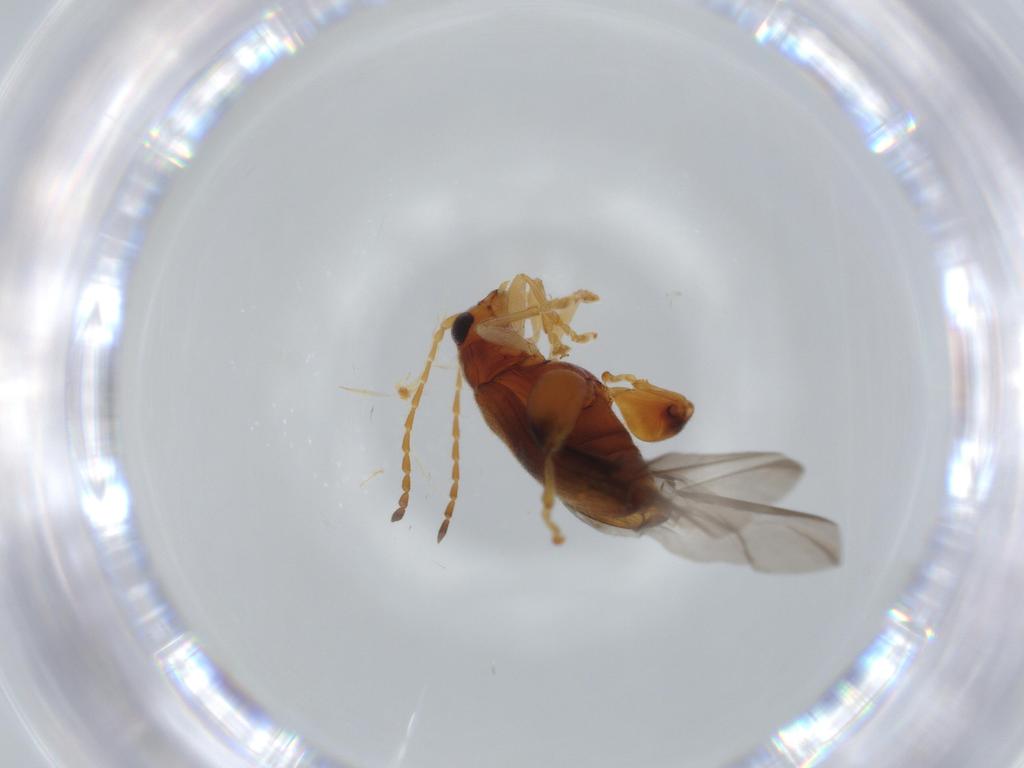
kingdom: Animalia
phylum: Arthropoda
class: Insecta
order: Coleoptera
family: Chrysomelidae
